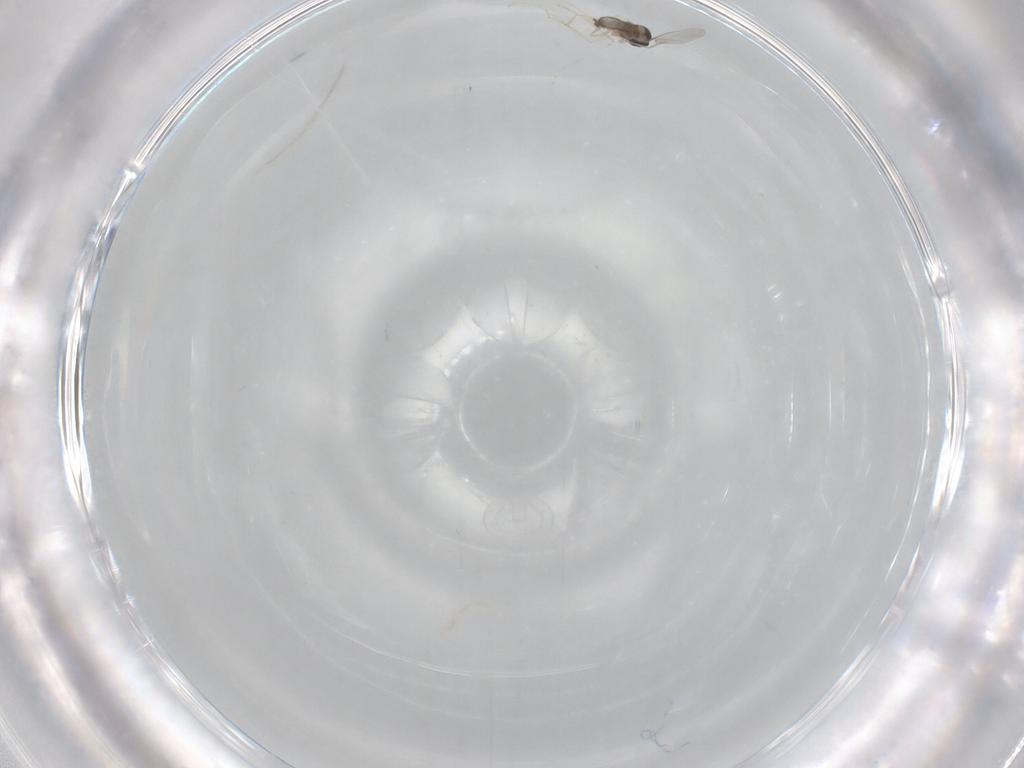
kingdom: Animalia
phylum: Arthropoda
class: Insecta
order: Diptera
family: Cecidomyiidae
